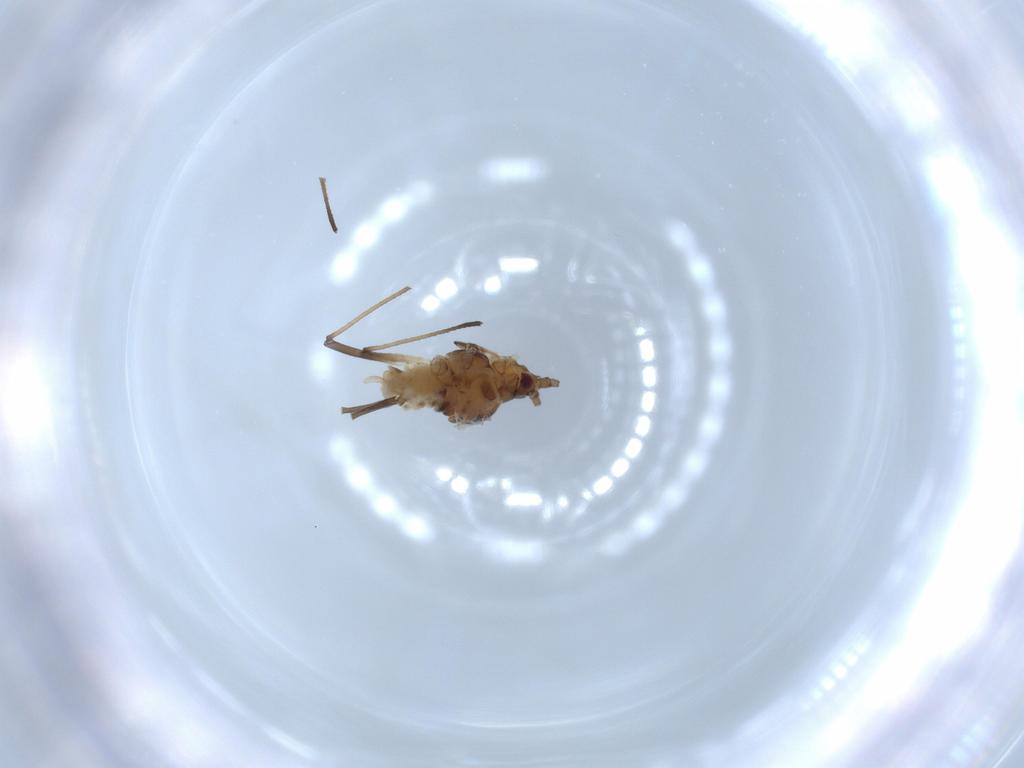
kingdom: Animalia
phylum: Arthropoda
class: Insecta
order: Hemiptera
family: Aphididae
